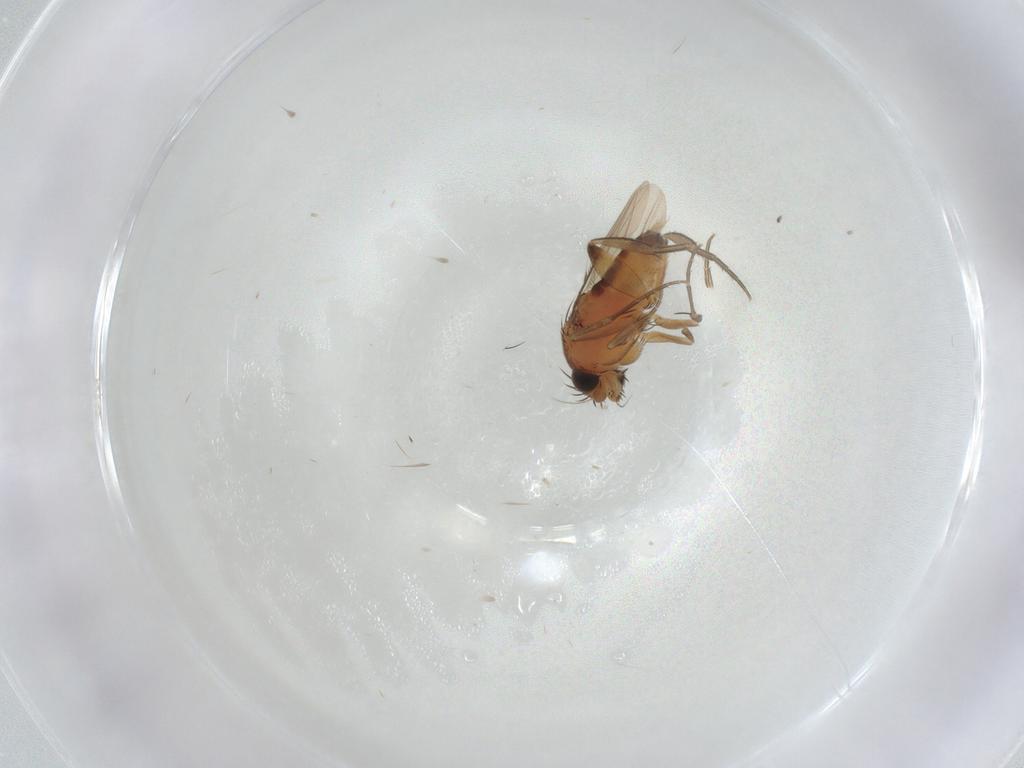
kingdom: Animalia
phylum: Arthropoda
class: Insecta
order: Diptera
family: Phoridae
